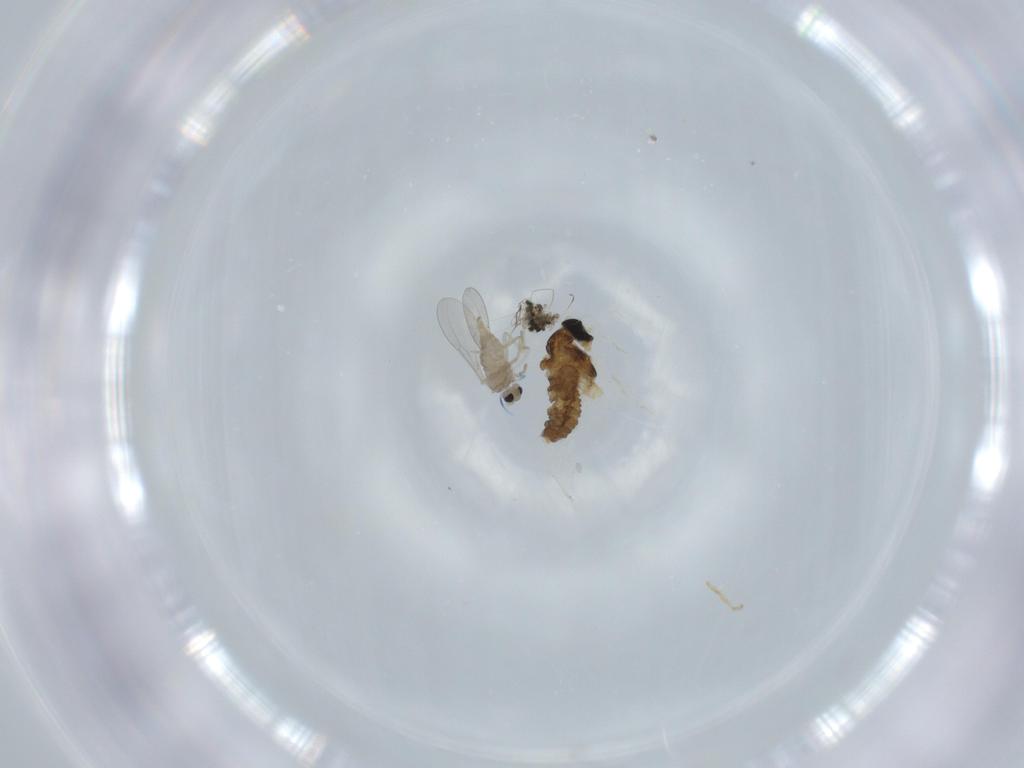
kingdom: Animalia
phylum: Arthropoda
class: Insecta
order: Diptera
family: Cecidomyiidae
